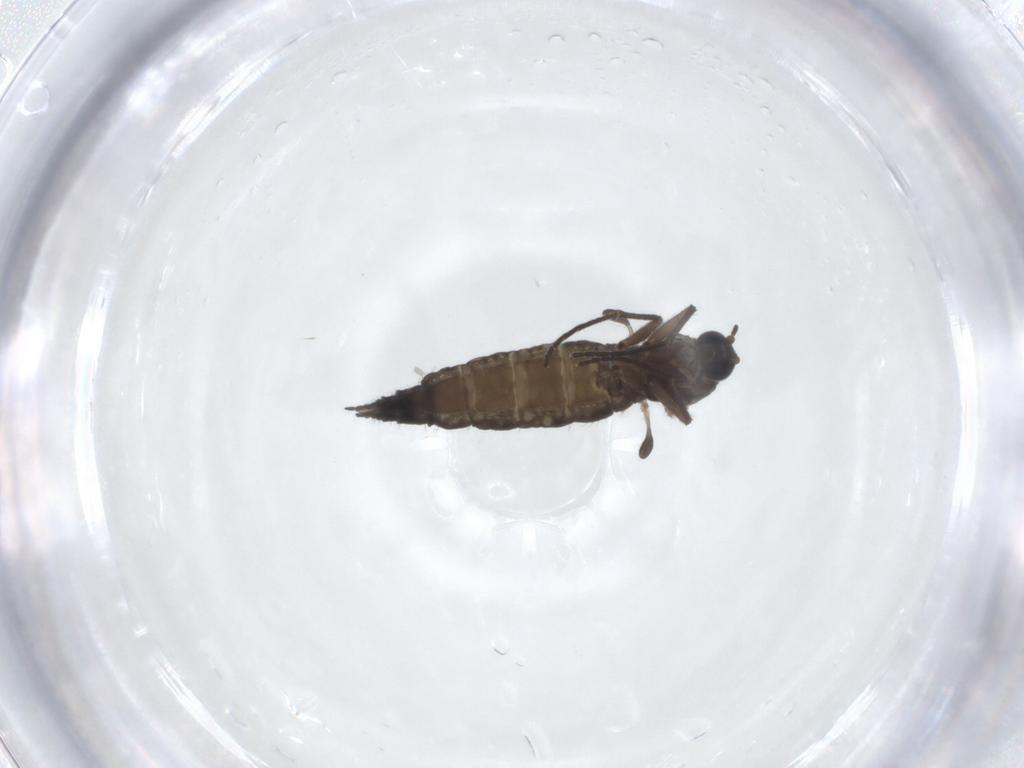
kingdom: Animalia
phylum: Arthropoda
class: Insecta
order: Diptera
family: Sciaridae
